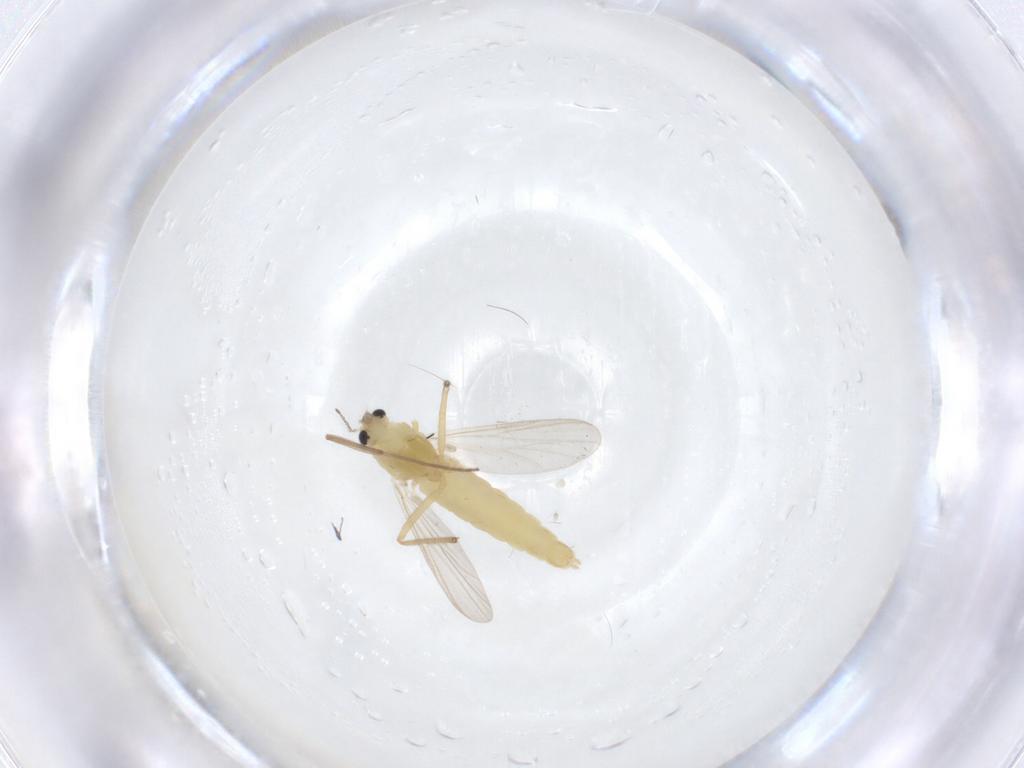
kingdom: Animalia
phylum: Arthropoda
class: Insecta
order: Diptera
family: Chironomidae
